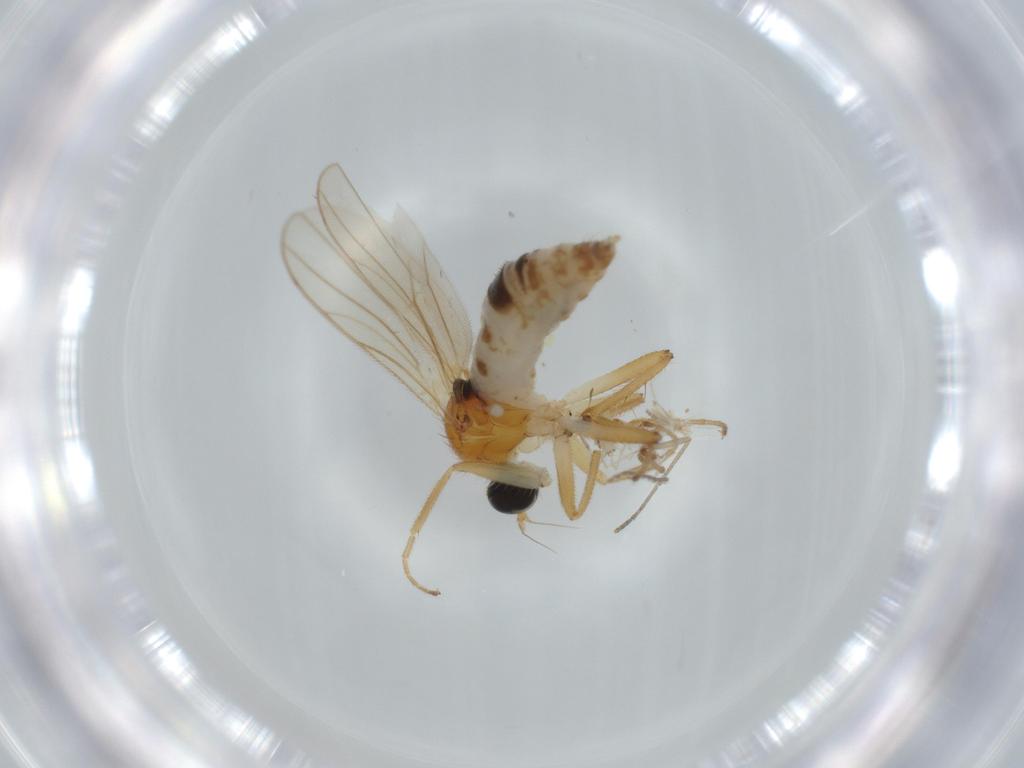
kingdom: Animalia
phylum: Arthropoda
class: Insecta
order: Diptera
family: Hybotidae
